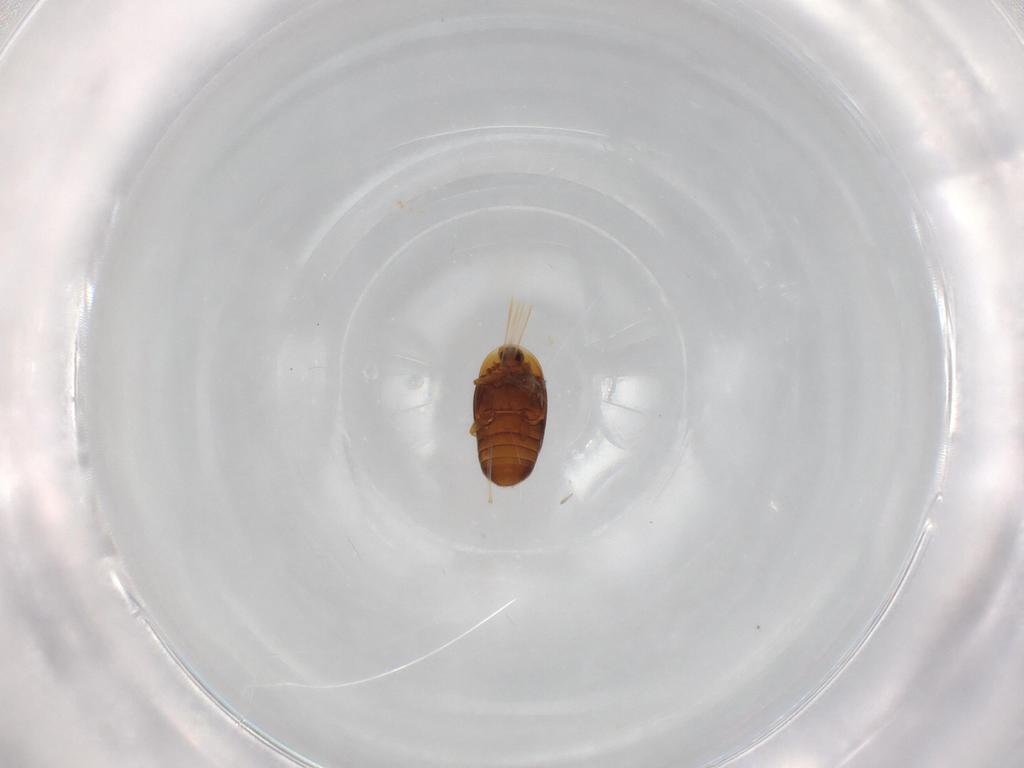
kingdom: Animalia
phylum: Arthropoda
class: Insecta
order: Coleoptera
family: Corylophidae
